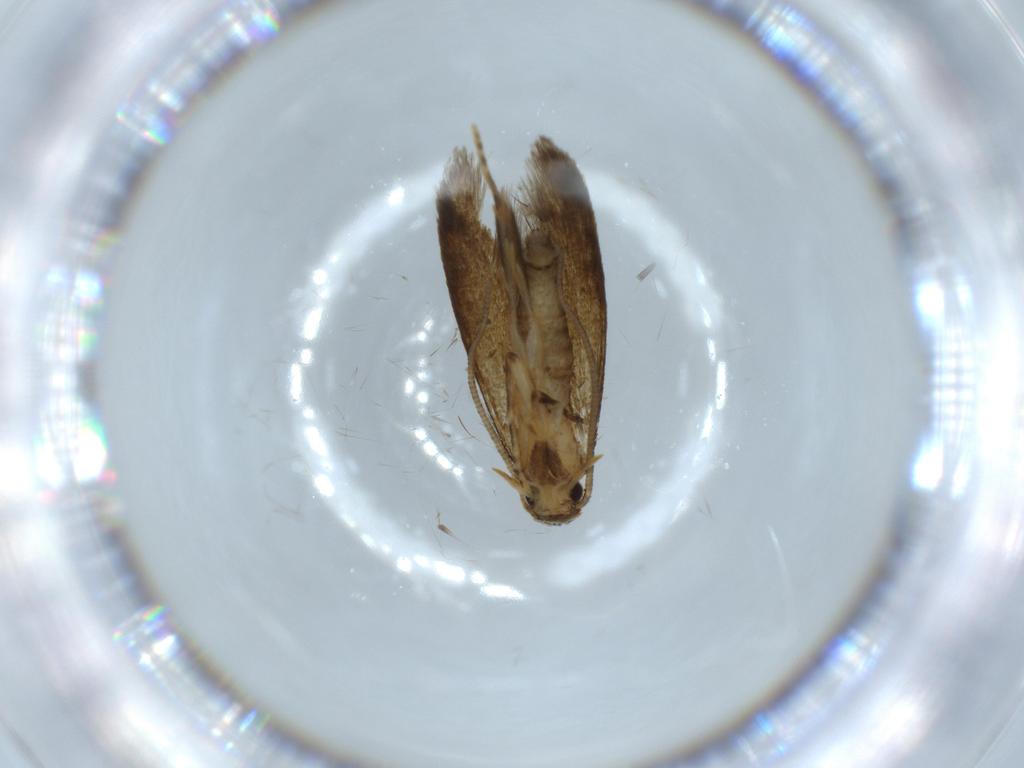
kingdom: Animalia
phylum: Arthropoda
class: Insecta
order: Lepidoptera
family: Tineidae
